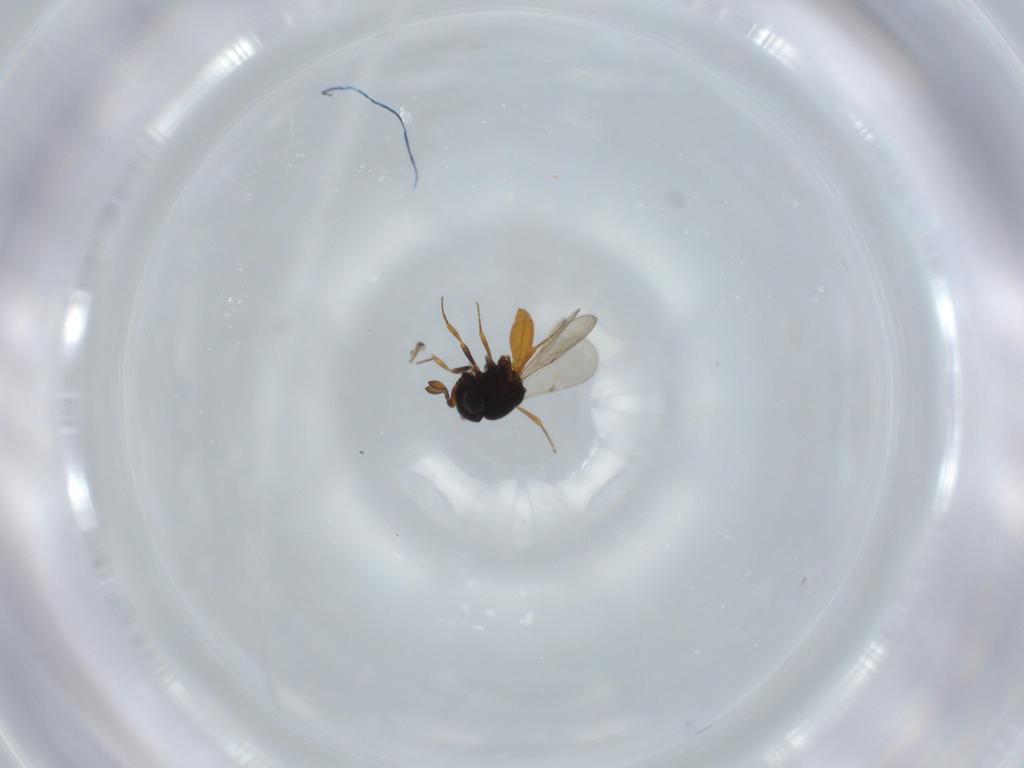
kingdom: Animalia
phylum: Arthropoda
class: Insecta
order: Hymenoptera
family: Scelionidae
